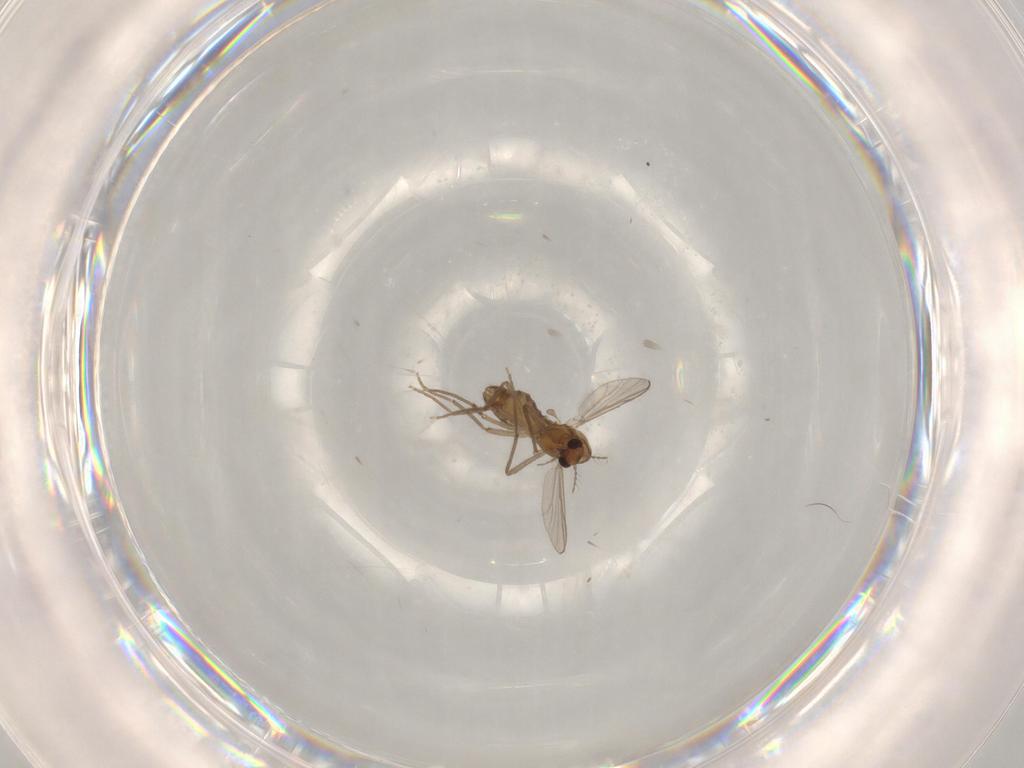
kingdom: Animalia
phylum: Arthropoda
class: Insecta
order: Diptera
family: Chironomidae
